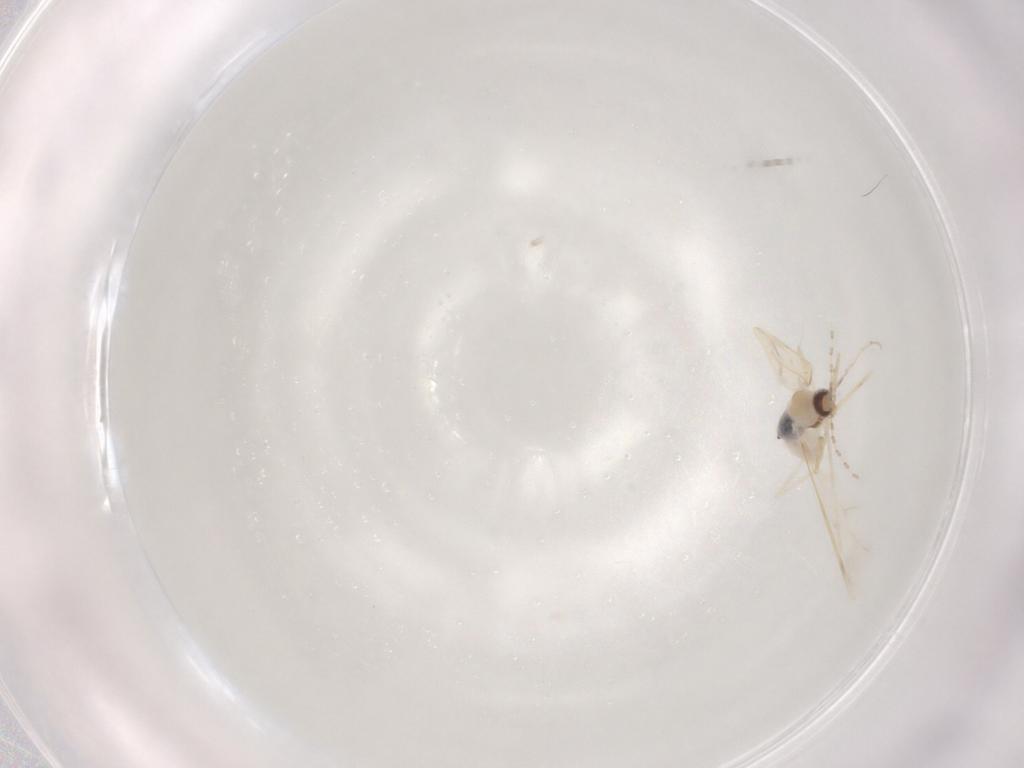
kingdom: Animalia
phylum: Arthropoda
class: Insecta
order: Diptera
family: Cecidomyiidae
